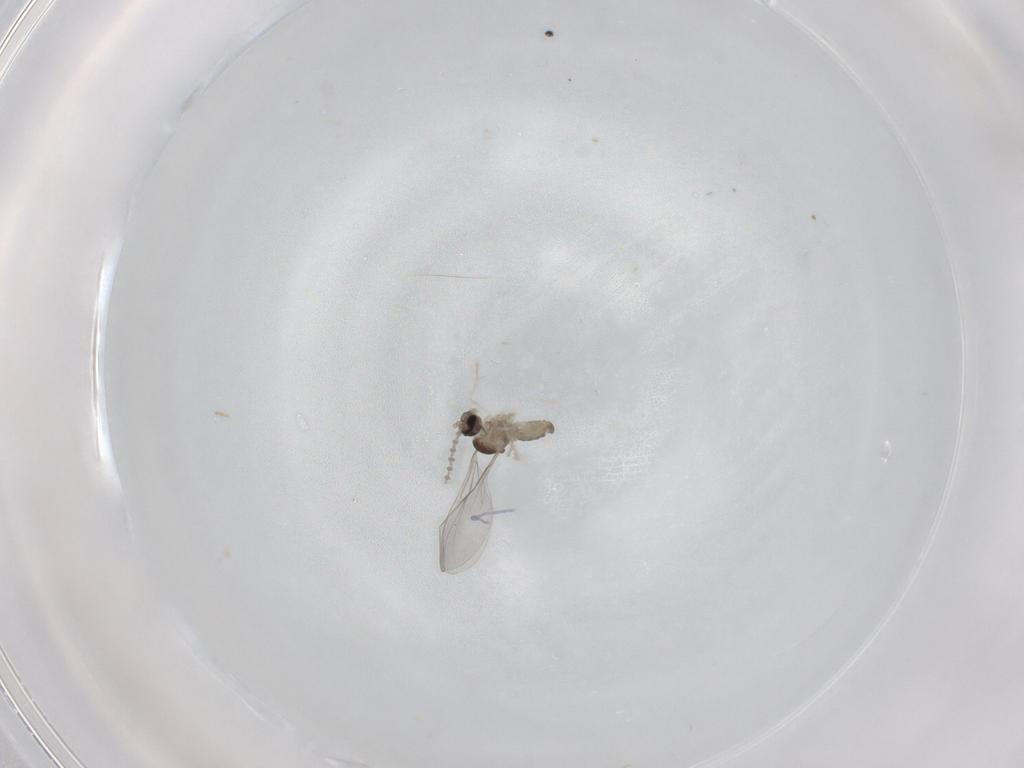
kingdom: Animalia
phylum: Arthropoda
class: Insecta
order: Diptera
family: Cecidomyiidae
